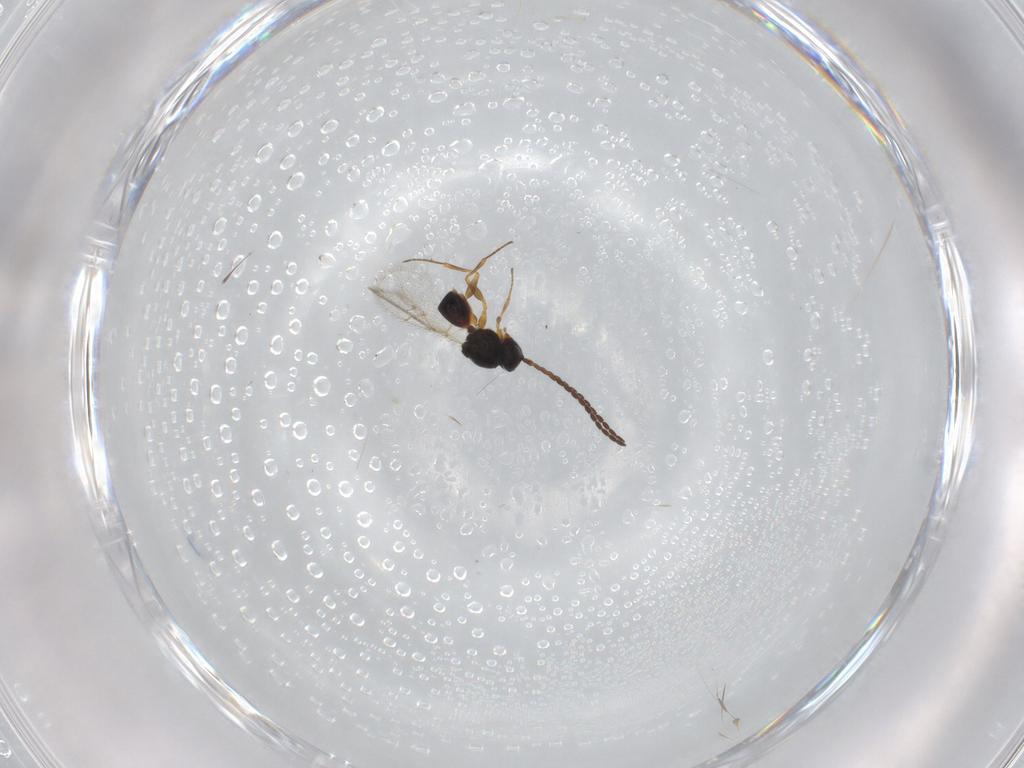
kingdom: Animalia
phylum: Arthropoda
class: Insecta
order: Hymenoptera
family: Figitidae
